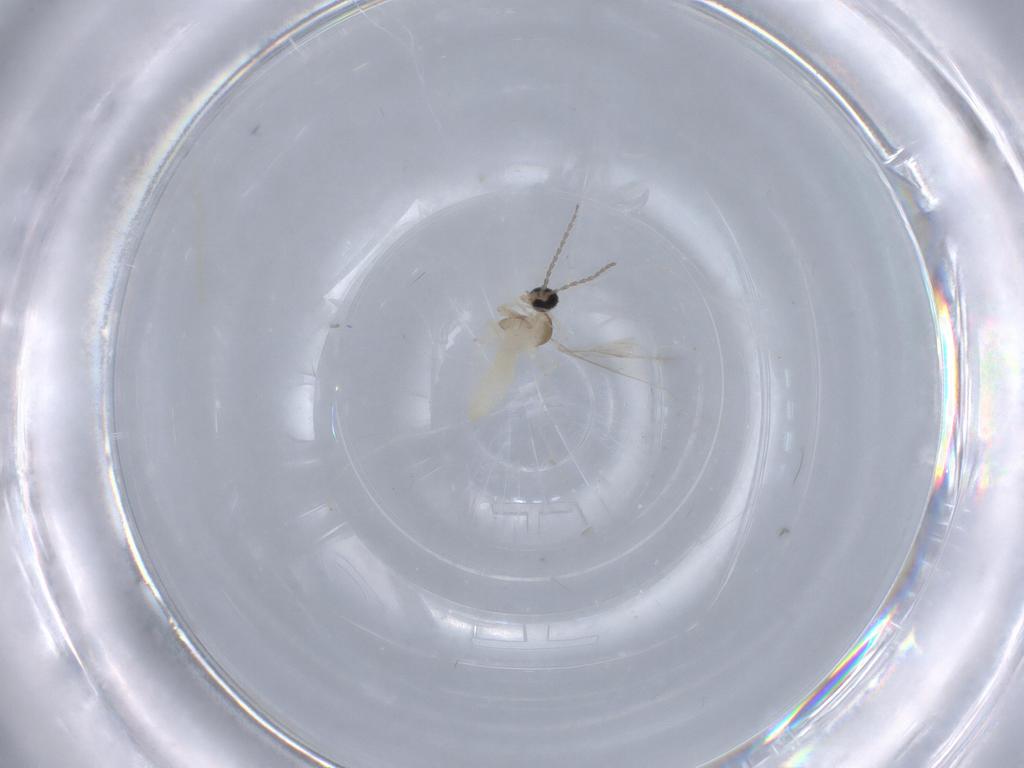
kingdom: Animalia
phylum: Arthropoda
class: Insecta
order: Diptera
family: Cecidomyiidae
